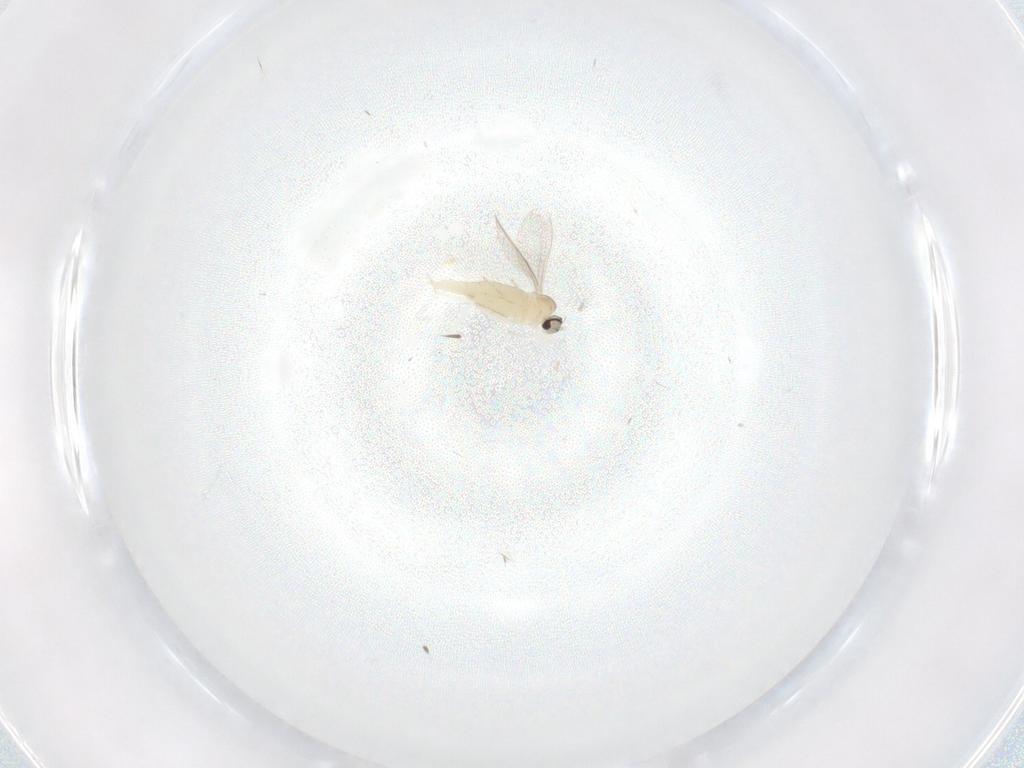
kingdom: Animalia
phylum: Arthropoda
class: Insecta
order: Diptera
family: Cecidomyiidae
